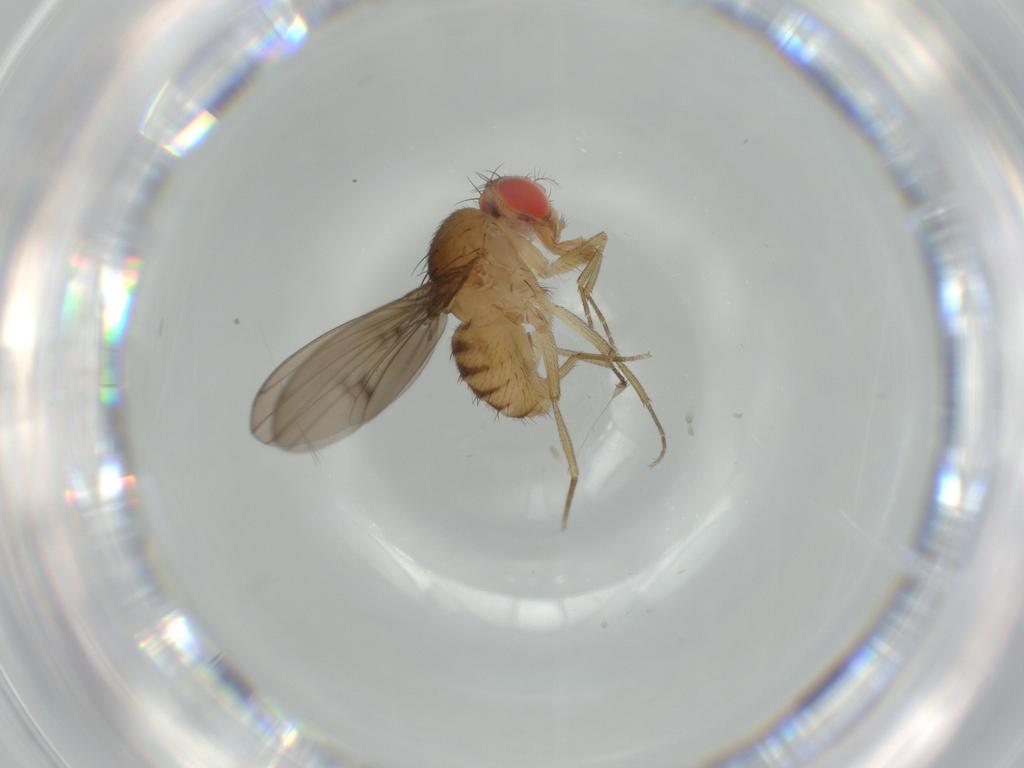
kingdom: Animalia
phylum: Arthropoda
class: Insecta
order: Diptera
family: Drosophilidae
